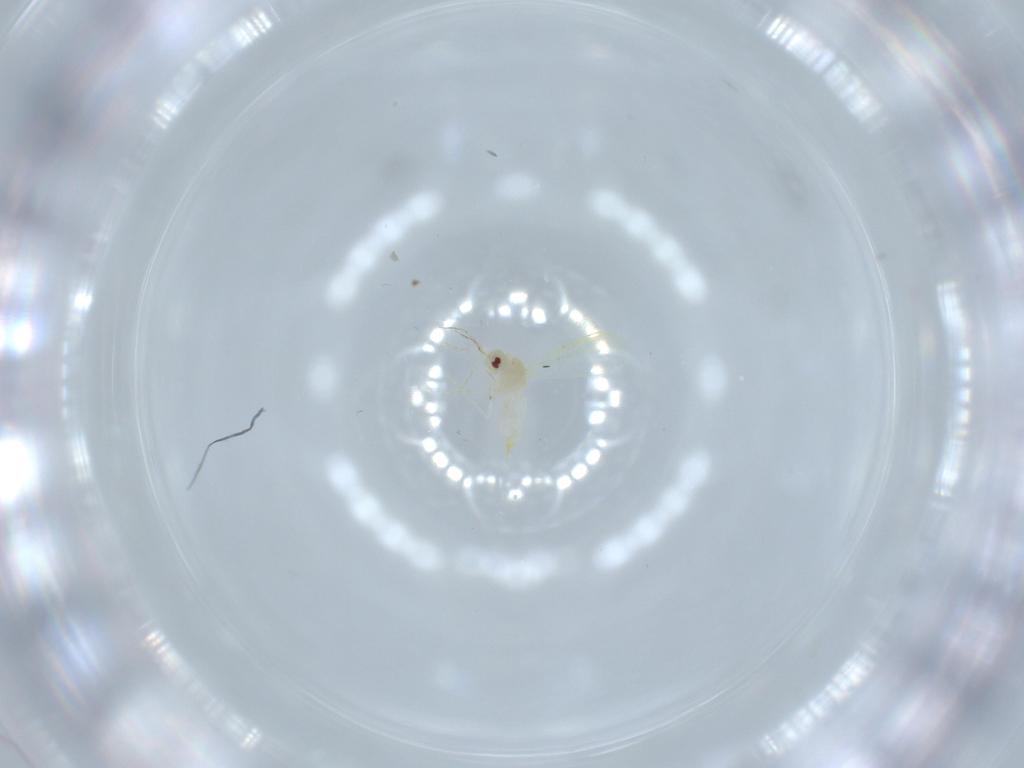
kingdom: Animalia
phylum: Arthropoda
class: Insecta
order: Hemiptera
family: Aleyrodidae
